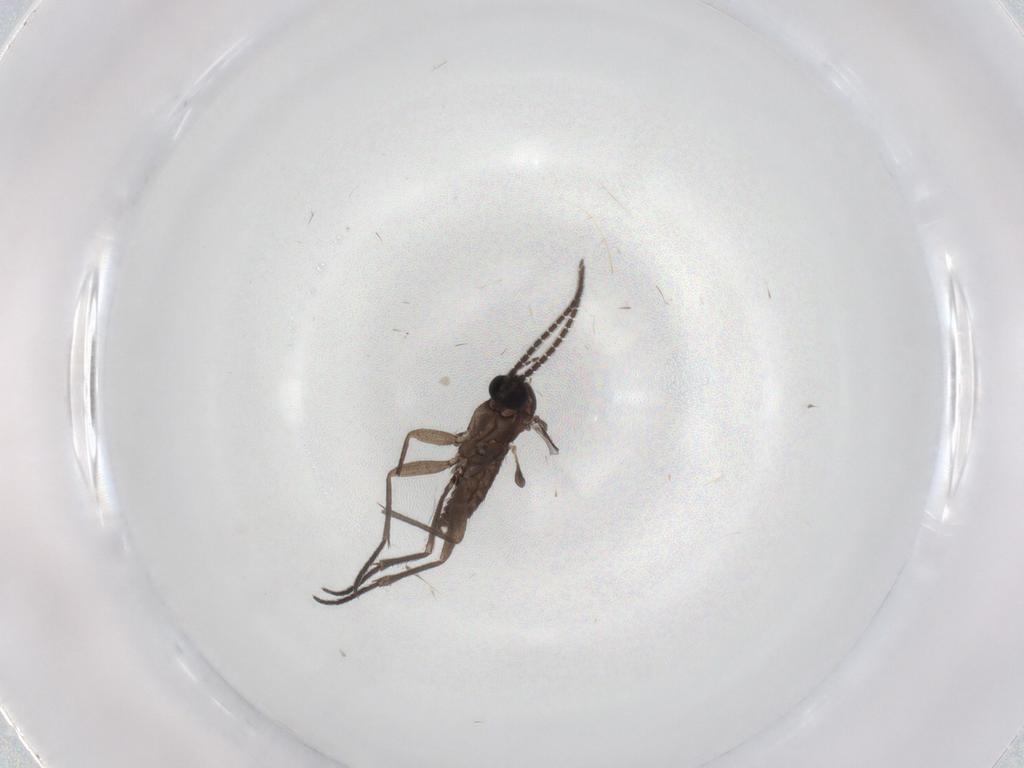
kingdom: Animalia
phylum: Arthropoda
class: Insecta
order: Diptera
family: Sciaridae
